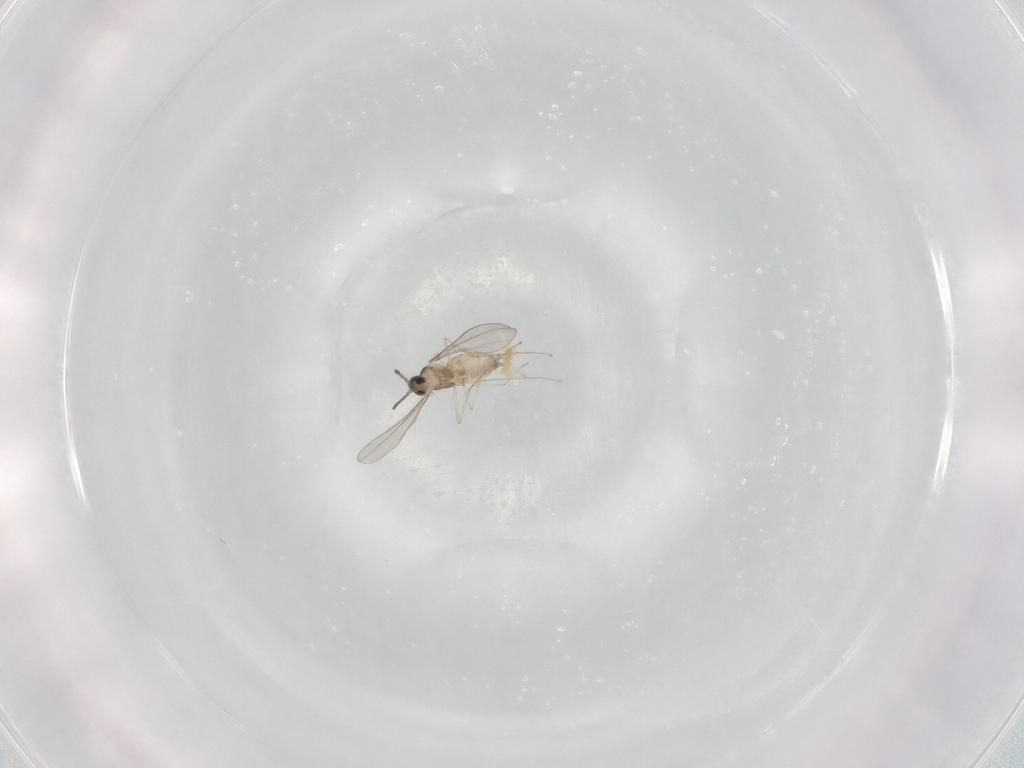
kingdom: Animalia
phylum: Arthropoda
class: Insecta
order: Diptera
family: Cecidomyiidae
